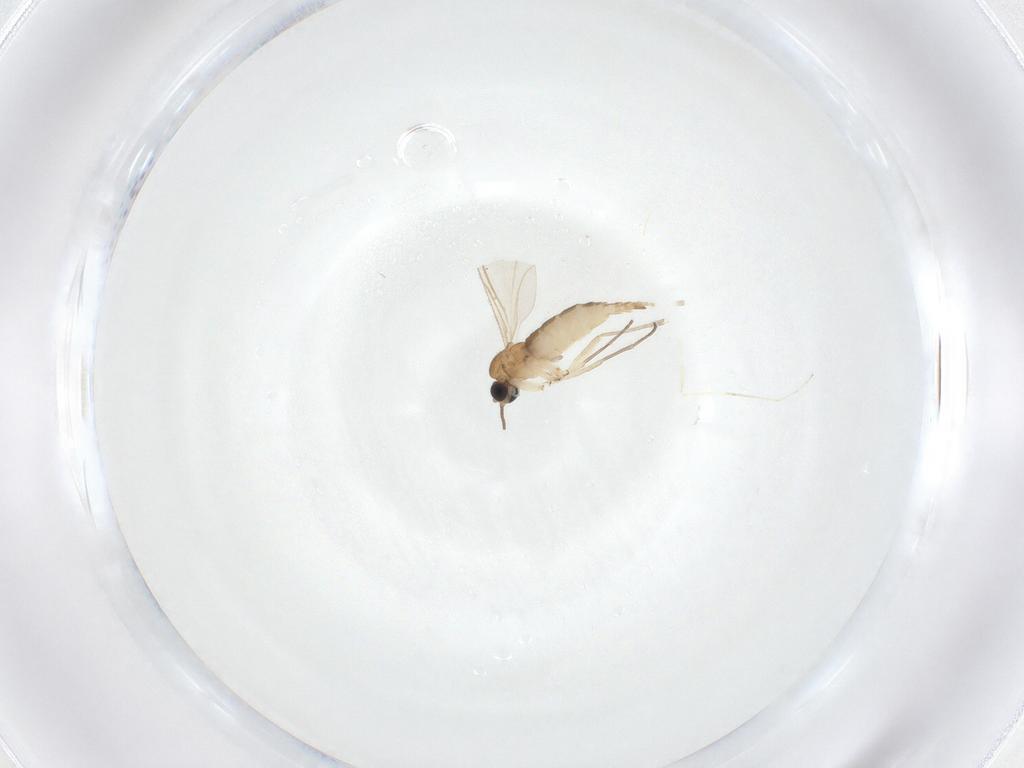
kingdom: Animalia
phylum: Arthropoda
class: Insecta
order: Diptera
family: Sciaridae
